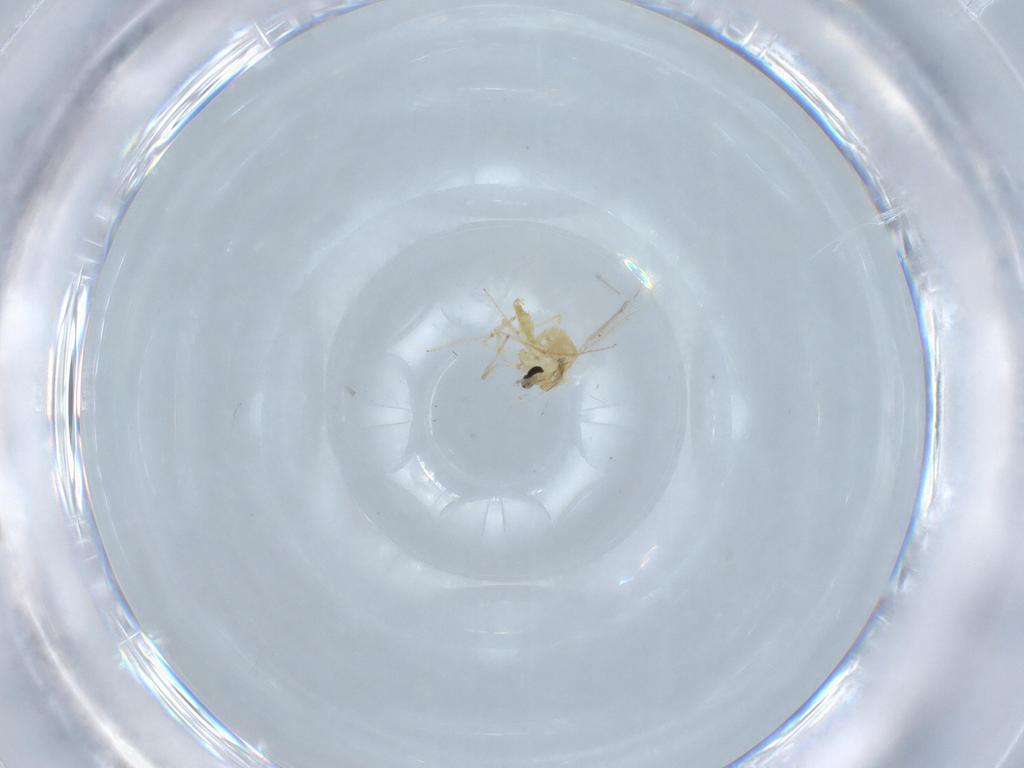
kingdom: Animalia
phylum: Arthropoda
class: Insecta
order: Diptera
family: Chironomidae
